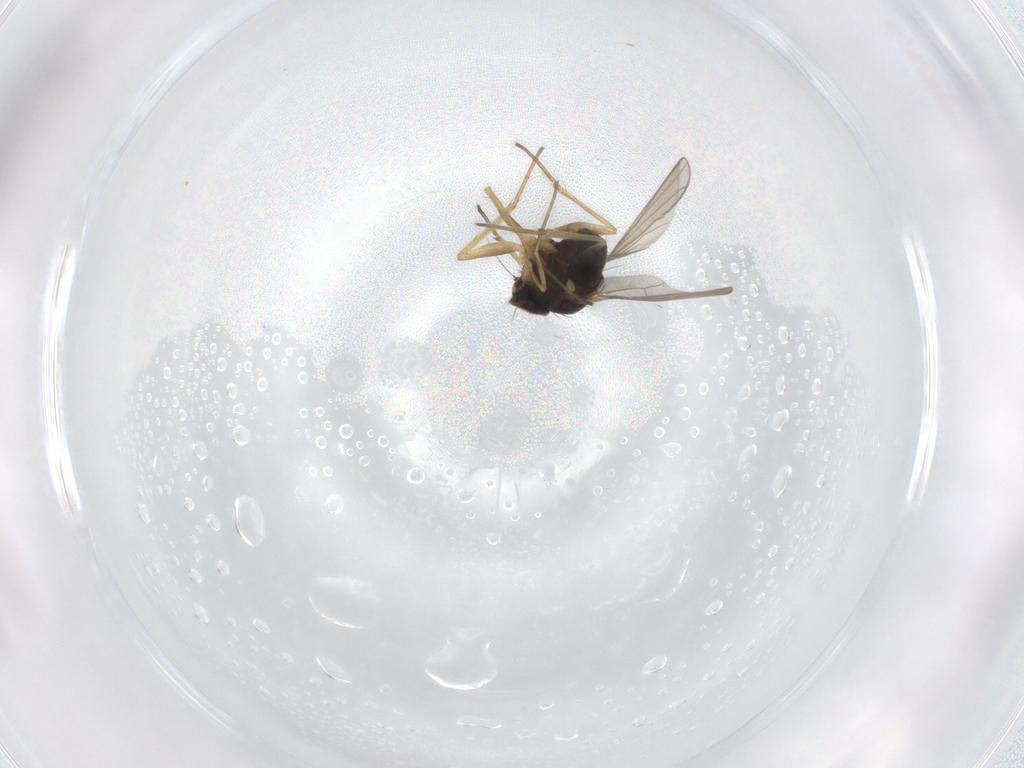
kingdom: Animalia
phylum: Arthropoda
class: Insecta
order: Diptera
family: Dolichopodidae
